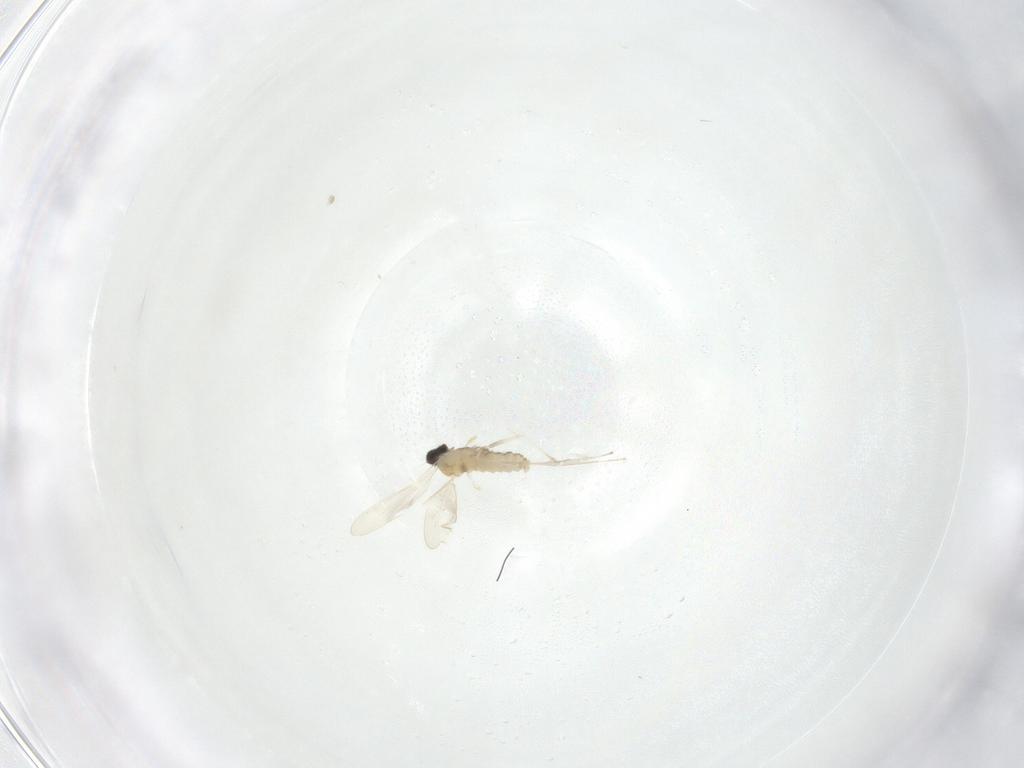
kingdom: Animalia
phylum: Arthropoda
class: Insecta
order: Diptera
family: Cecidomyiidae
